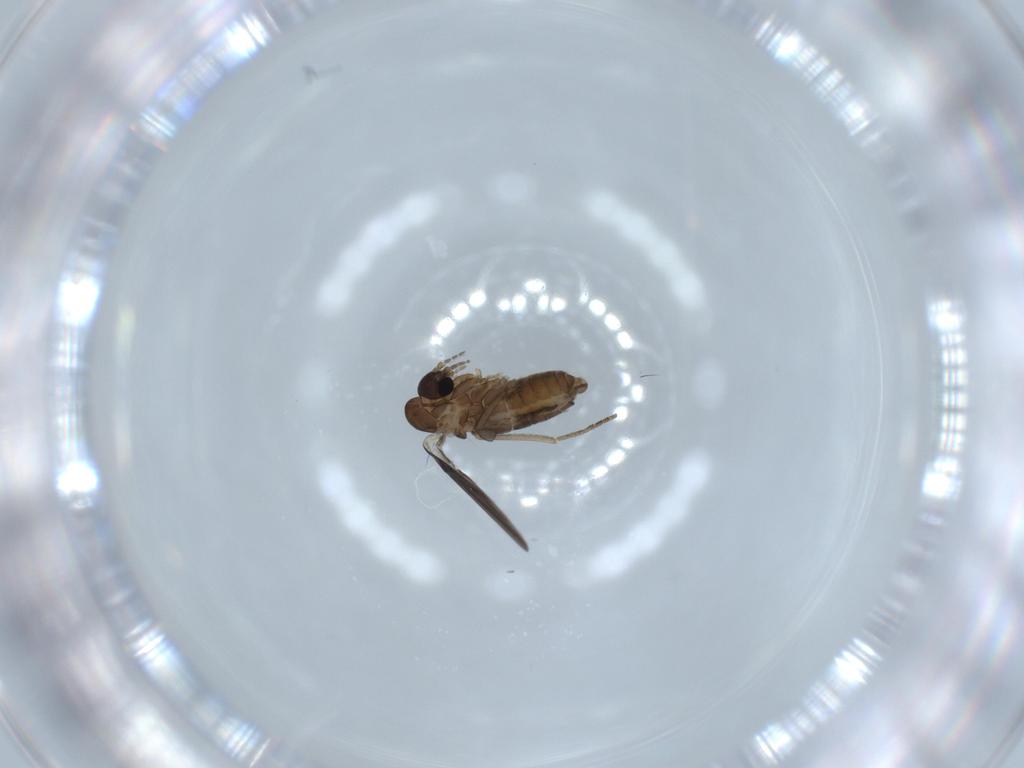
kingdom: Animalia
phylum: Arthropoda
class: Insecta
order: Diptera
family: Psychodidae
